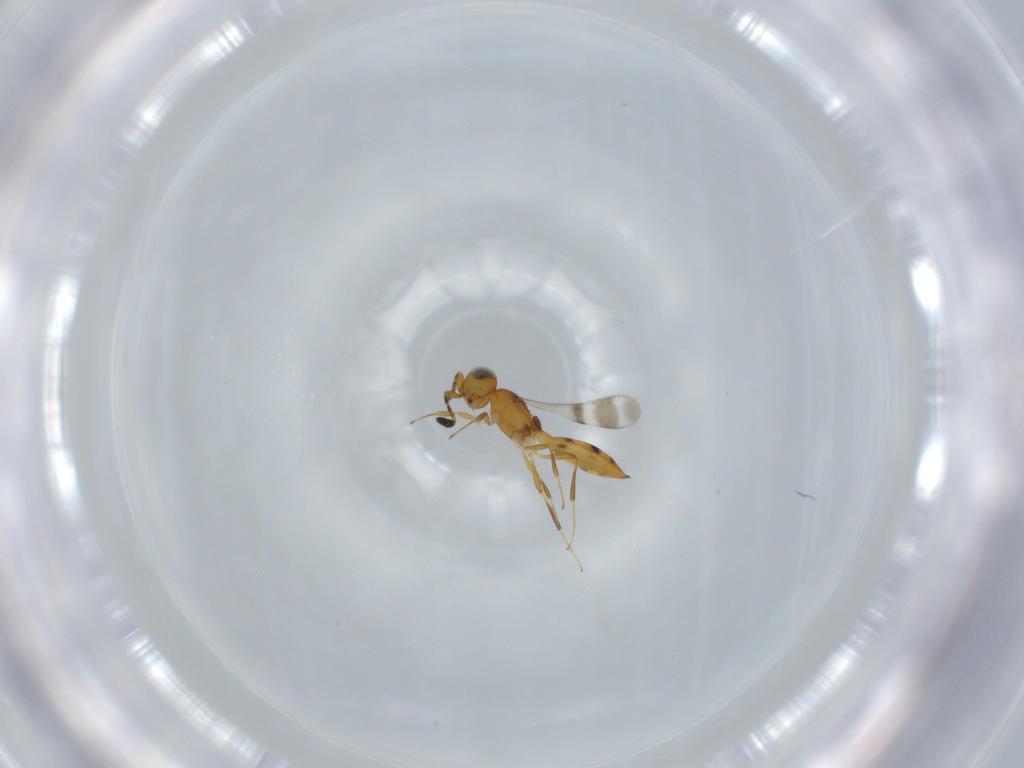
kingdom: Animalia
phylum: Arthropoda
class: Insecta
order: Hymenoptera
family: Scelionidae
